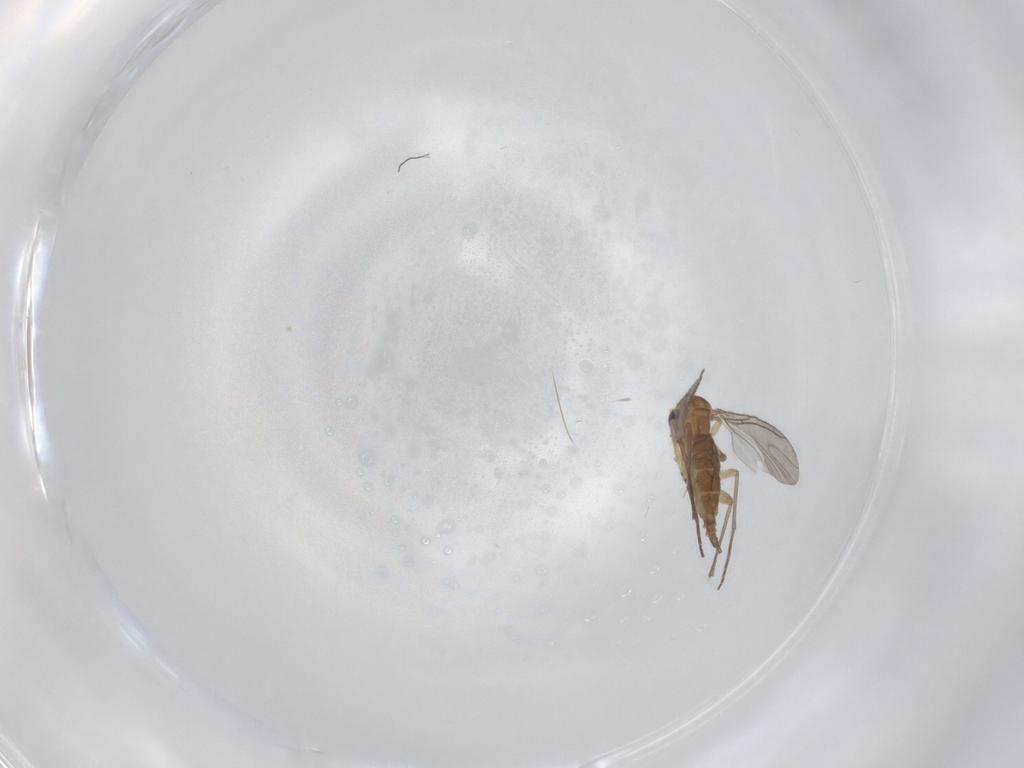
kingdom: Animalia
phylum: Arthropoda
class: Insecta
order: Diptera
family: Sciaridae
